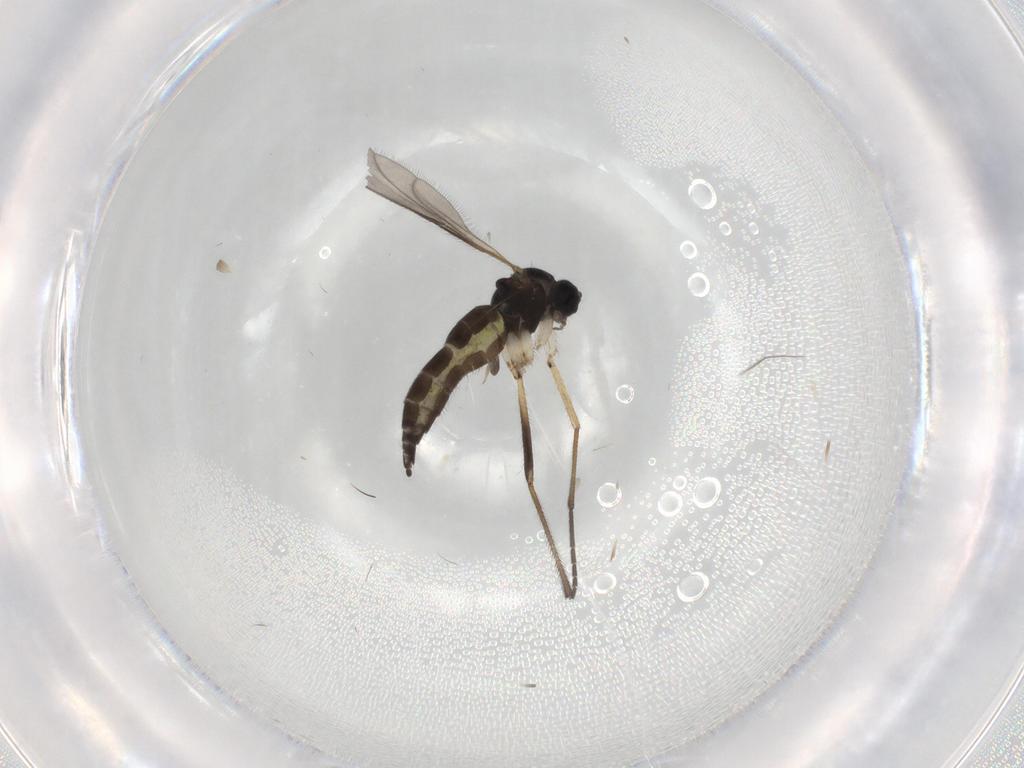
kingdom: Animalia
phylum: Arthropoda
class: Insecta
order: Diptera
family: Sciaridae
